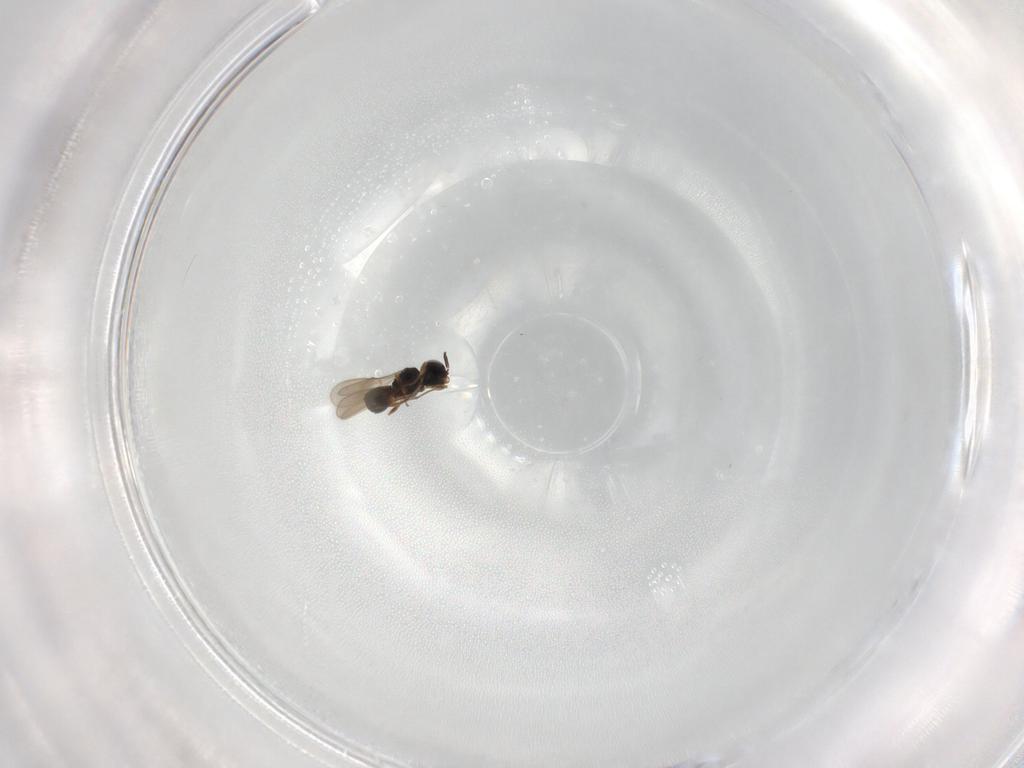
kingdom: Animalia
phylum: Arthropoda
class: Insecta
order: Hymenoptera
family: Scelionidae
